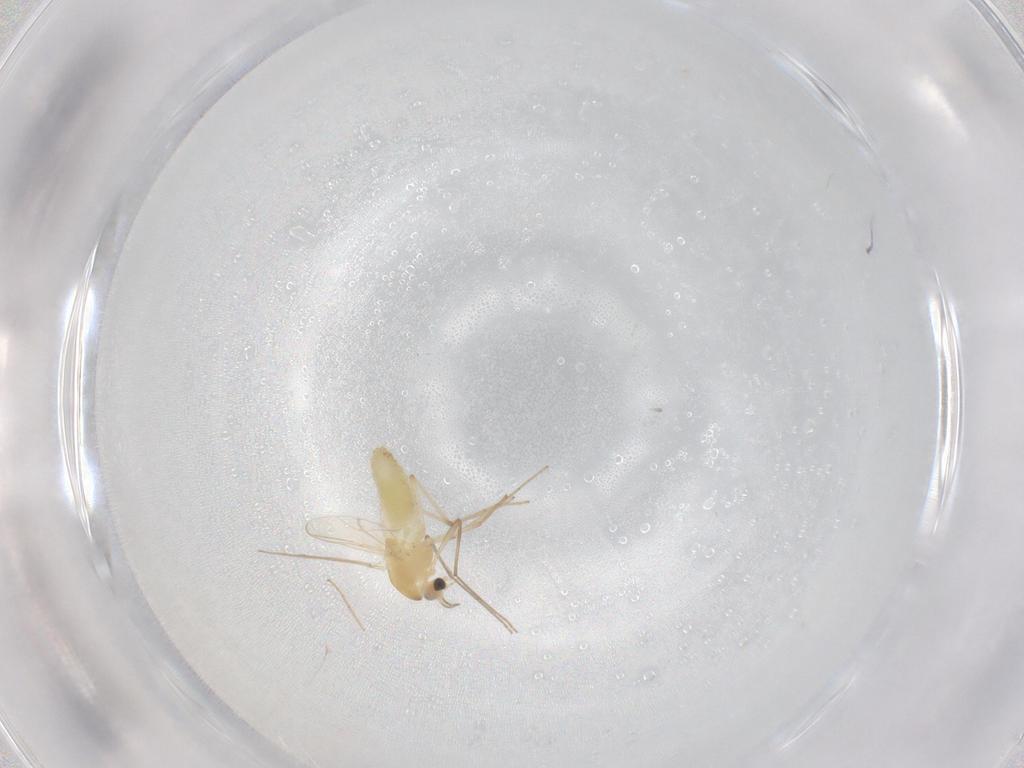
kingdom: Animalia
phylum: Arthropoda
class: Insecta
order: Diptera
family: Chironomidae
